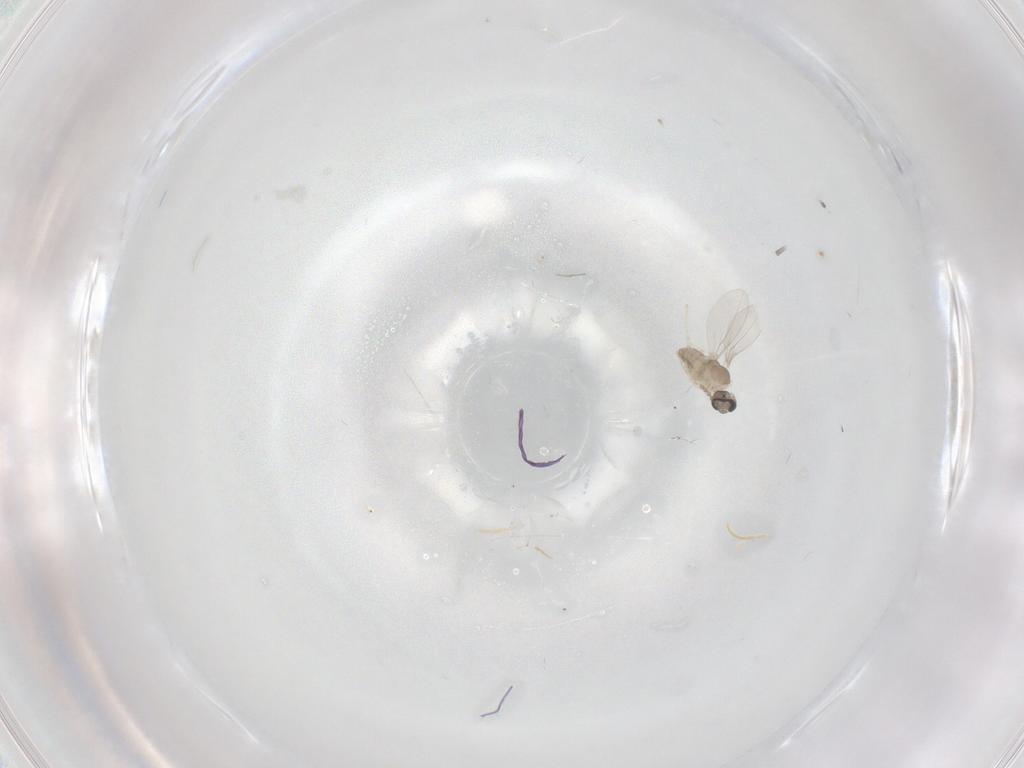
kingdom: Animalia
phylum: Arthropoda
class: Insecta
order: Diptera
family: Cecidomyiidae
